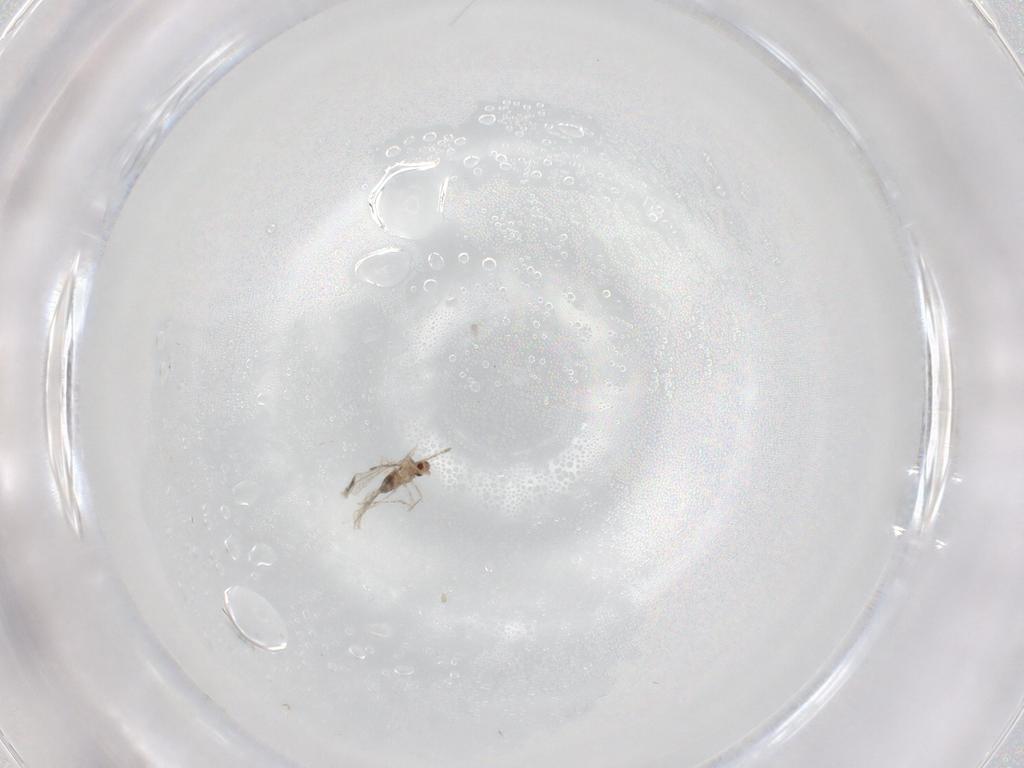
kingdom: Animalia
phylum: Arthropoda
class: Insecta
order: Diptera
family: Cecidomyiidae
